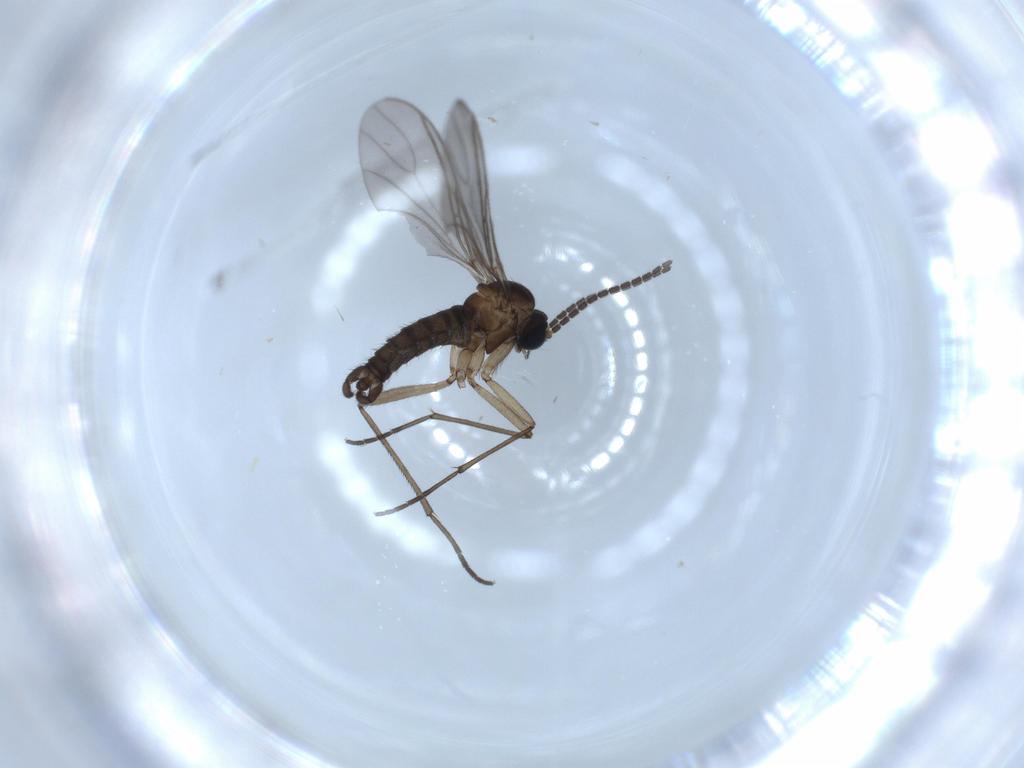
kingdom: Animalia
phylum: Arthropoda
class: Insecta
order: Diptera
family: Sciaridae
